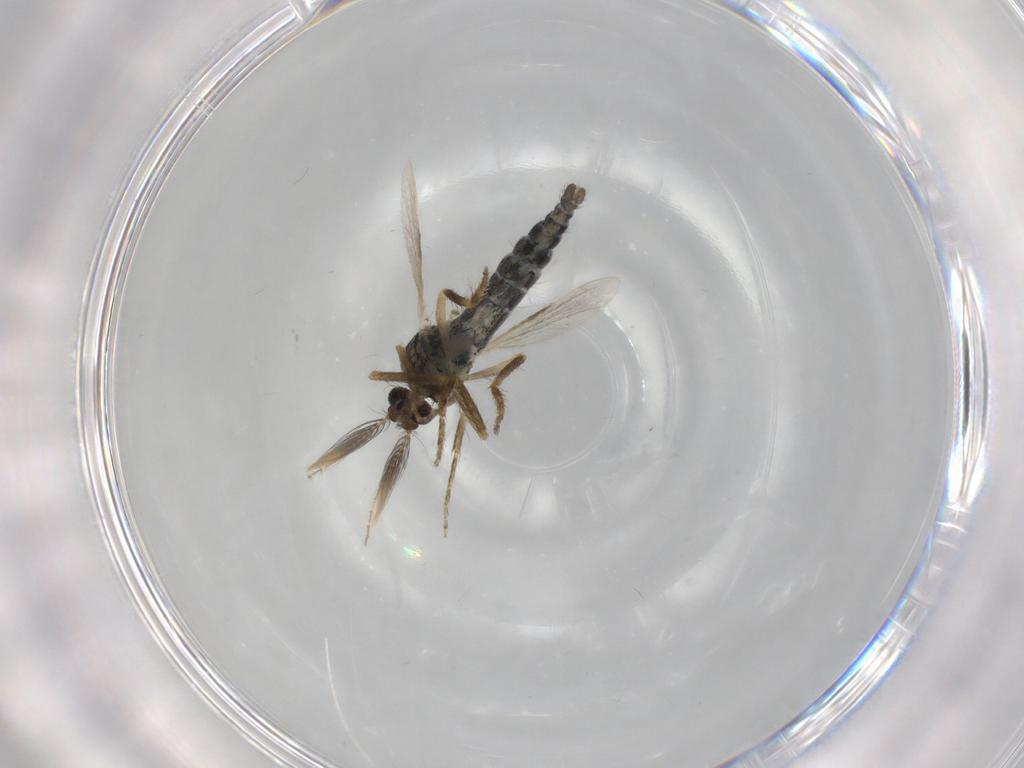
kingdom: Animalia
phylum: Arthropoda
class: Insecta
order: Diptera
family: Ceratopogonidae
